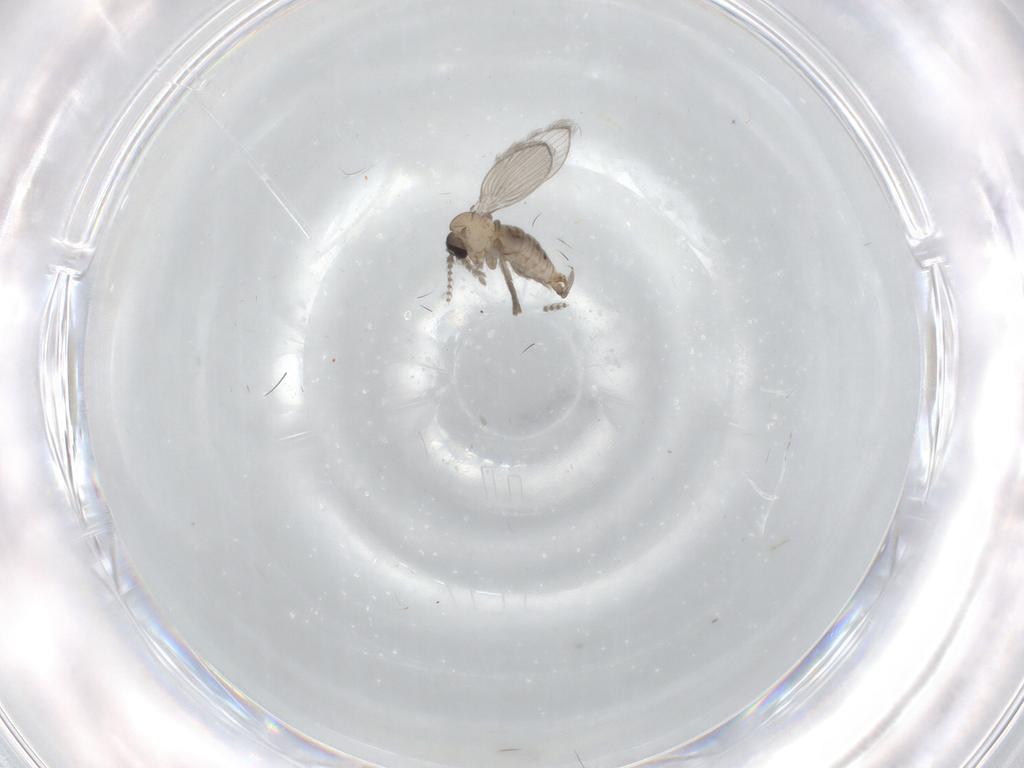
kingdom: Animalia
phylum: Arthropoda
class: Insecta
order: Diptera
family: Psychodidae
